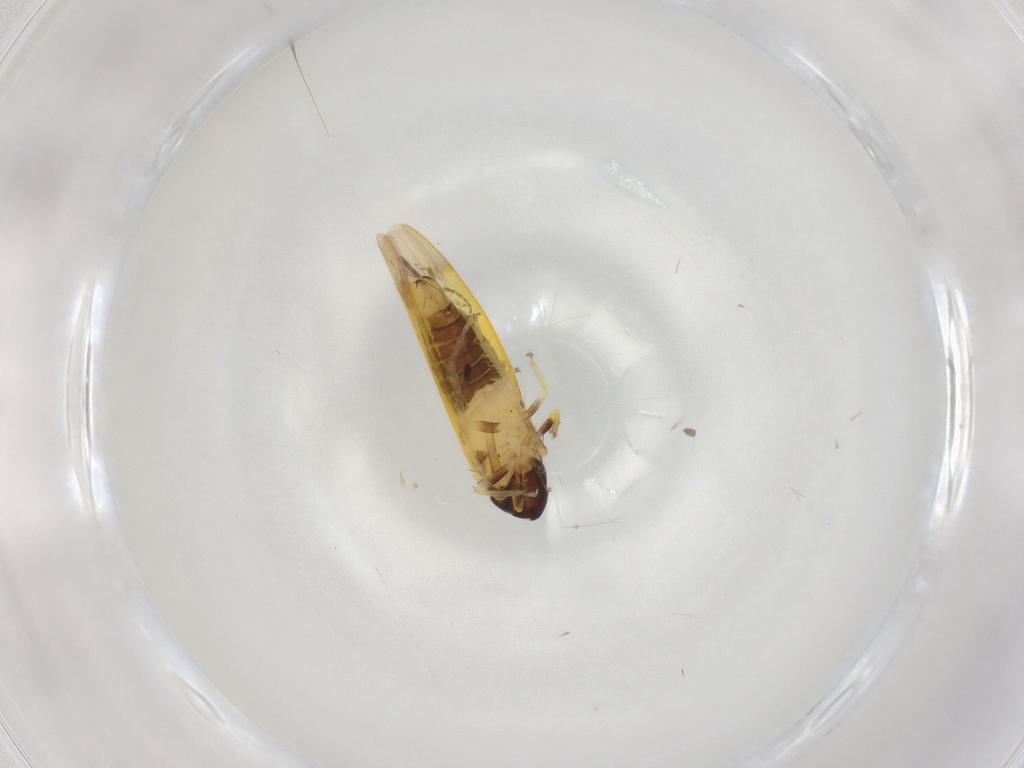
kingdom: Animalia
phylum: Arthropoda
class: Insecta
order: Hemiptera
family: Cicadellidae
